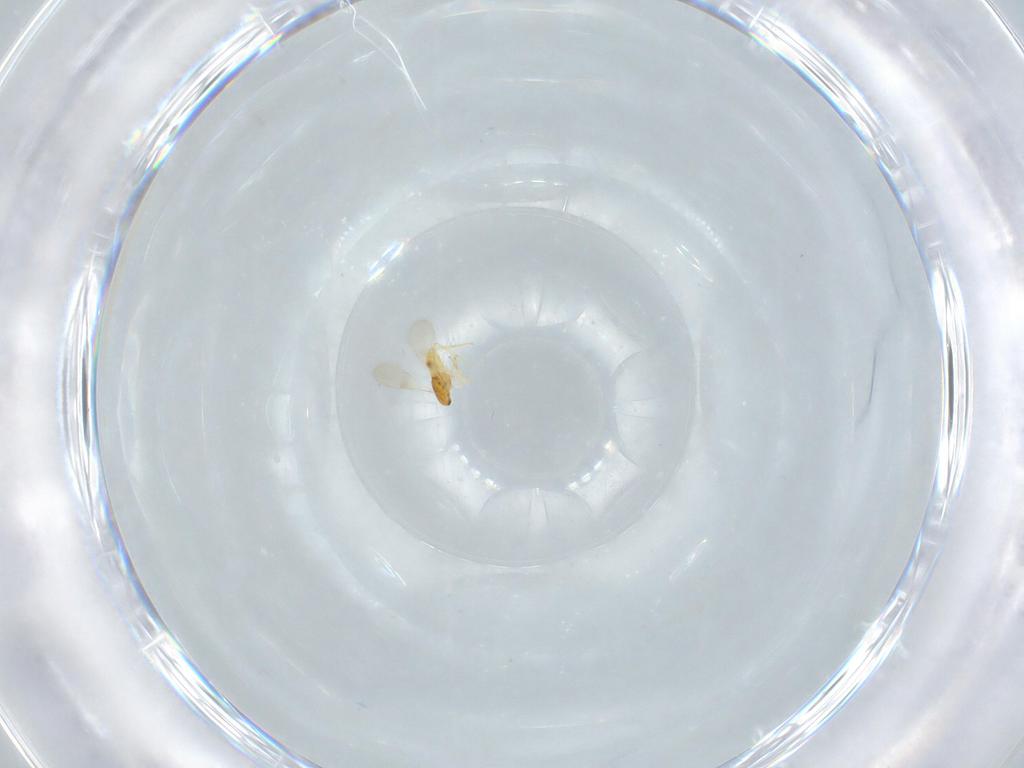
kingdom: Animalia
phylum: Arthropoda
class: Insecta
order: Hymenoptera
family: Aphelinidae
